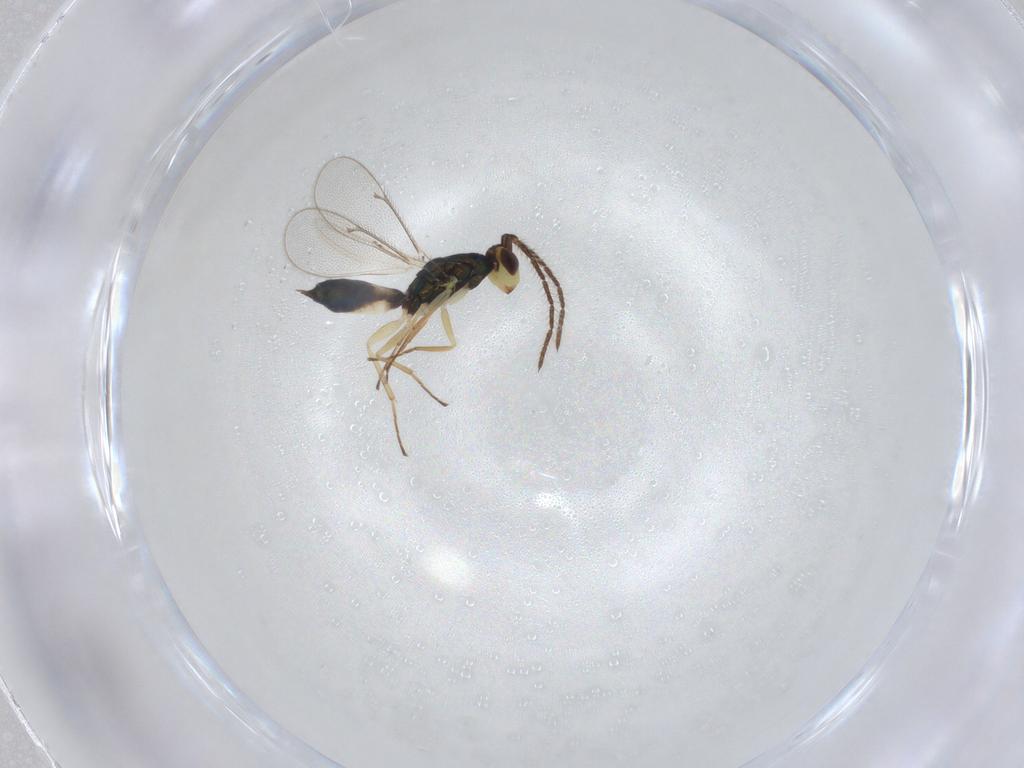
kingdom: Animalia
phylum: Arthropoda
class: Insecta
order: Hymenoptera
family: Eulophidae
